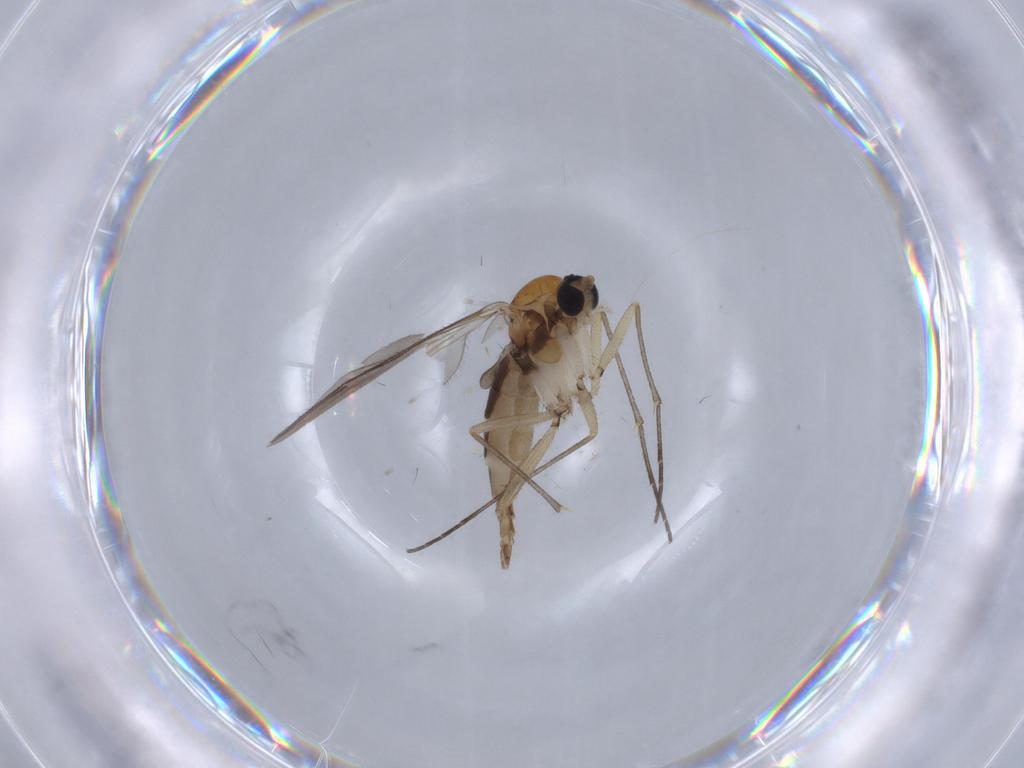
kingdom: Animalia
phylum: Arthropoda
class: Insecta
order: Diptera
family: Sciaridae
